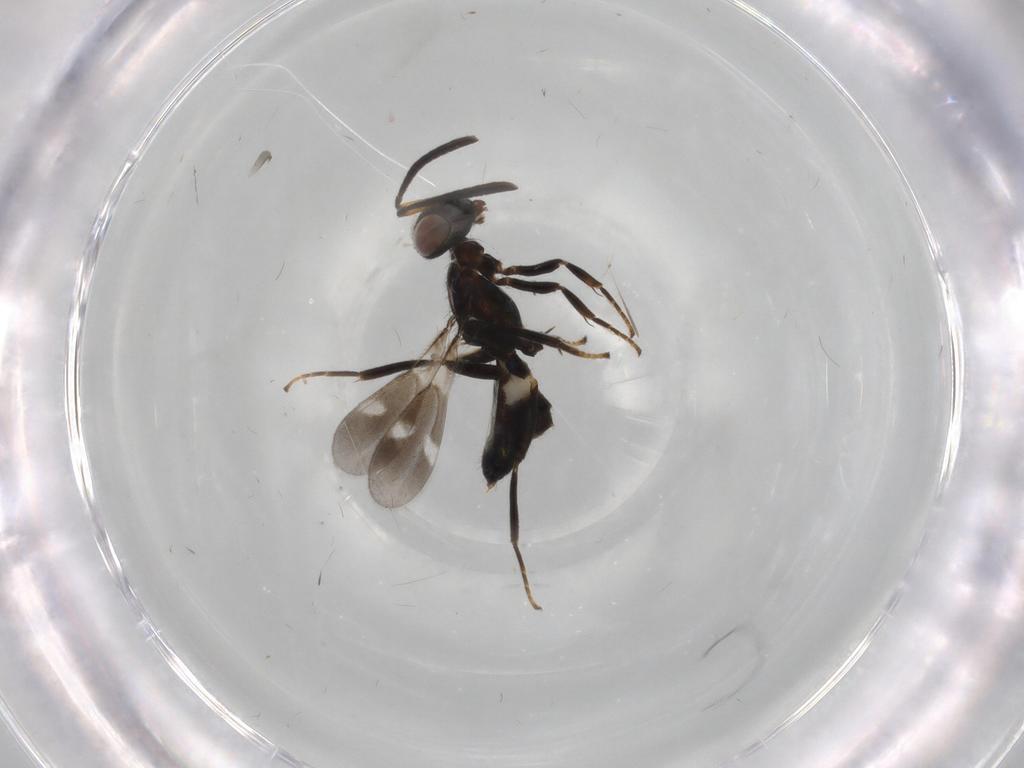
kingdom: Animalia
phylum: Arthropoda
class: Insecta
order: Hymenoptera
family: Eupelmidae
